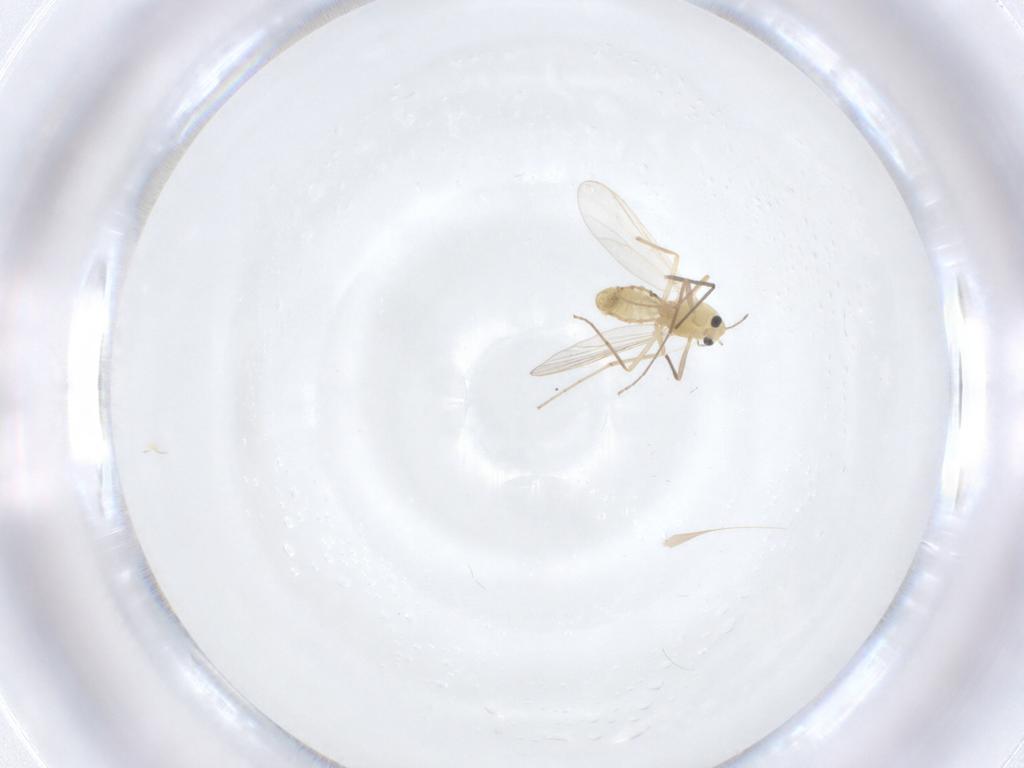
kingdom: Animalia
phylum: Arthropoda
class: Insecta
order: Diptera
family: Chironomidae
